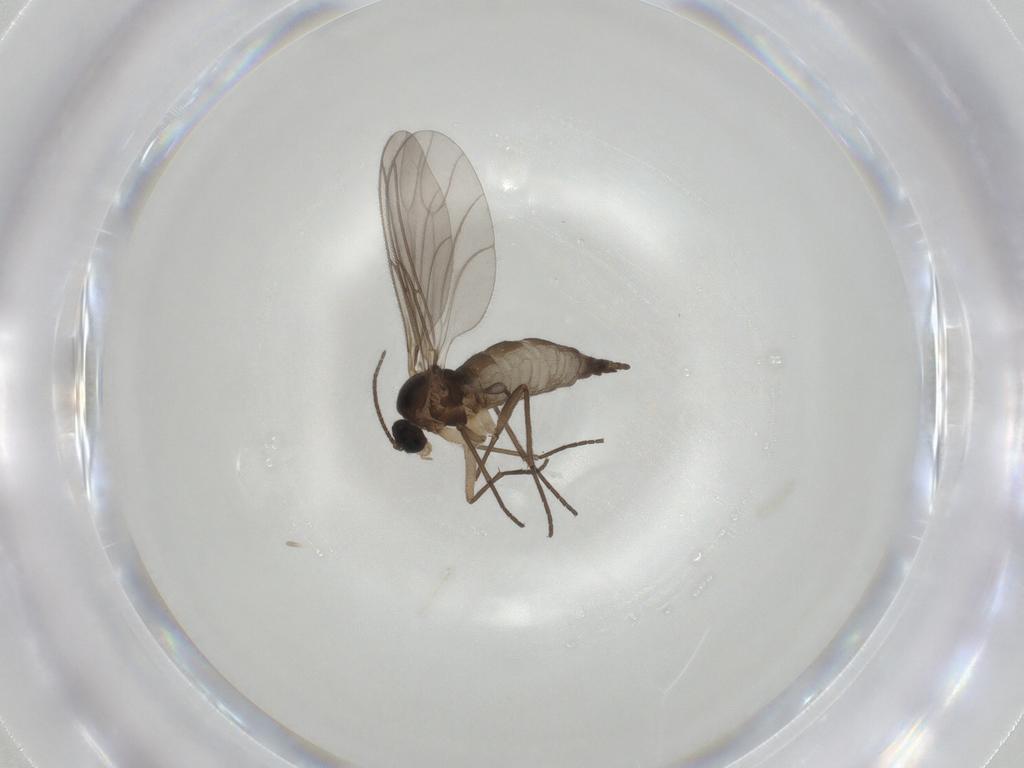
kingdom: Animalia
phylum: Arthropoda
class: Insecta
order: Diptera
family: Sciaridae
